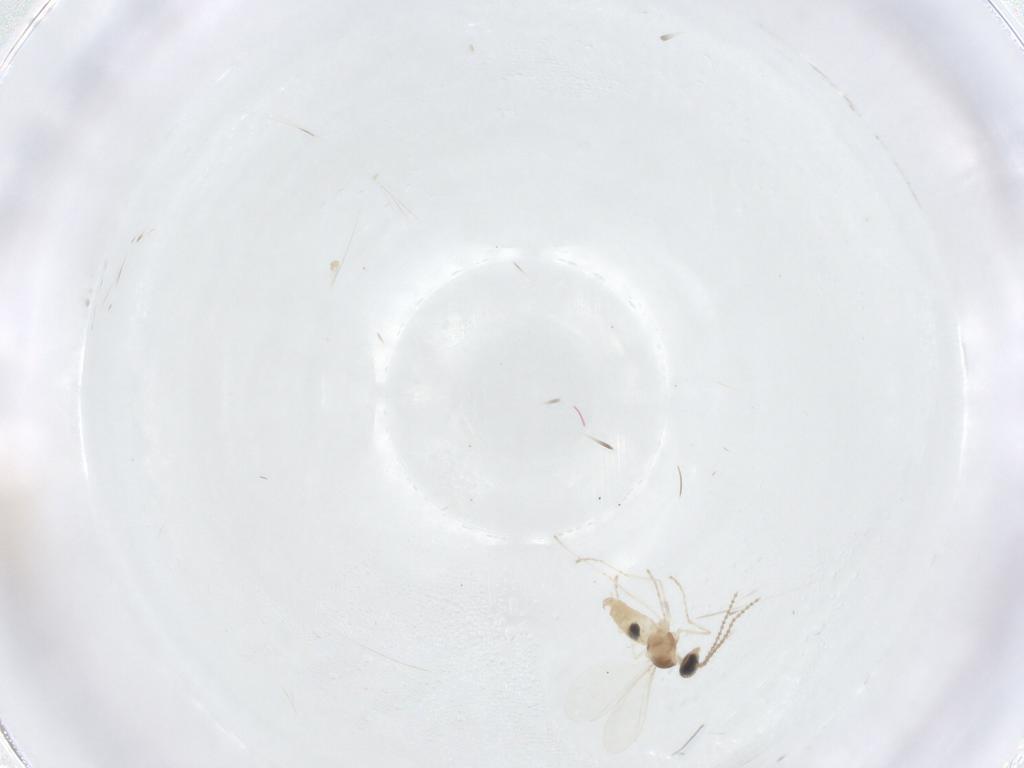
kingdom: Animalia
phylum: Arthropoda
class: Insecta
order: Diptera
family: Cecidomyiidae
